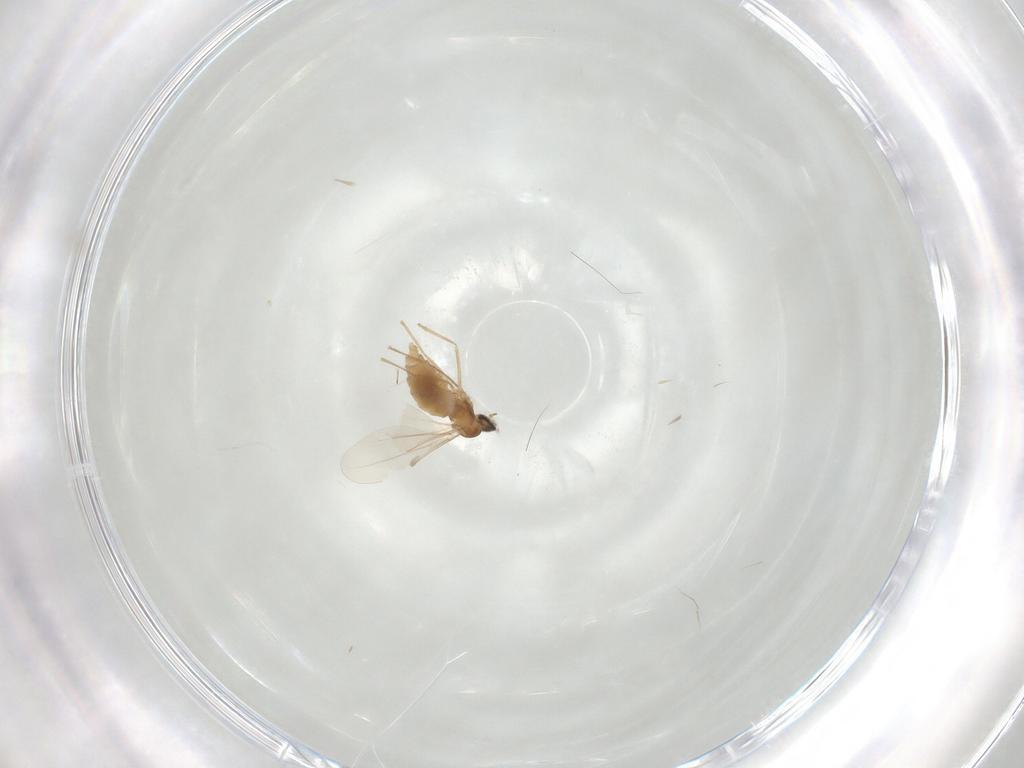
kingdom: Animalia
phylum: Arthropoda
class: Insecta
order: Diptera
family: Cecidomyiidae
